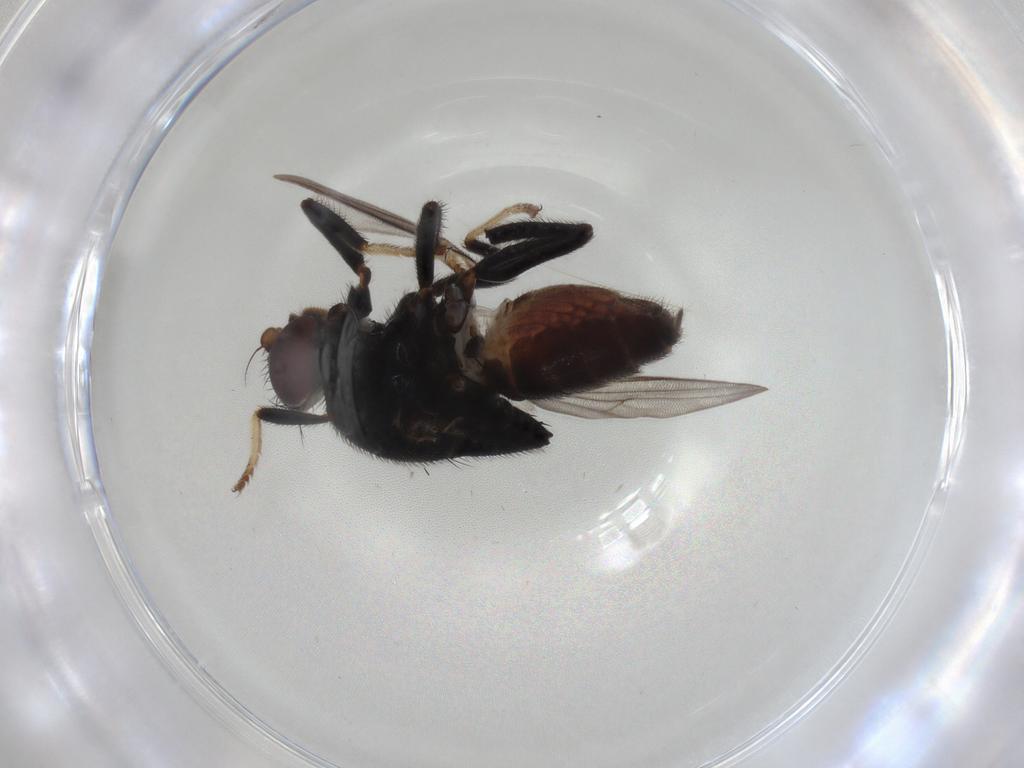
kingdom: Animalia
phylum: Arthropoda
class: Insecta
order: Diptera
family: Chloropidae
